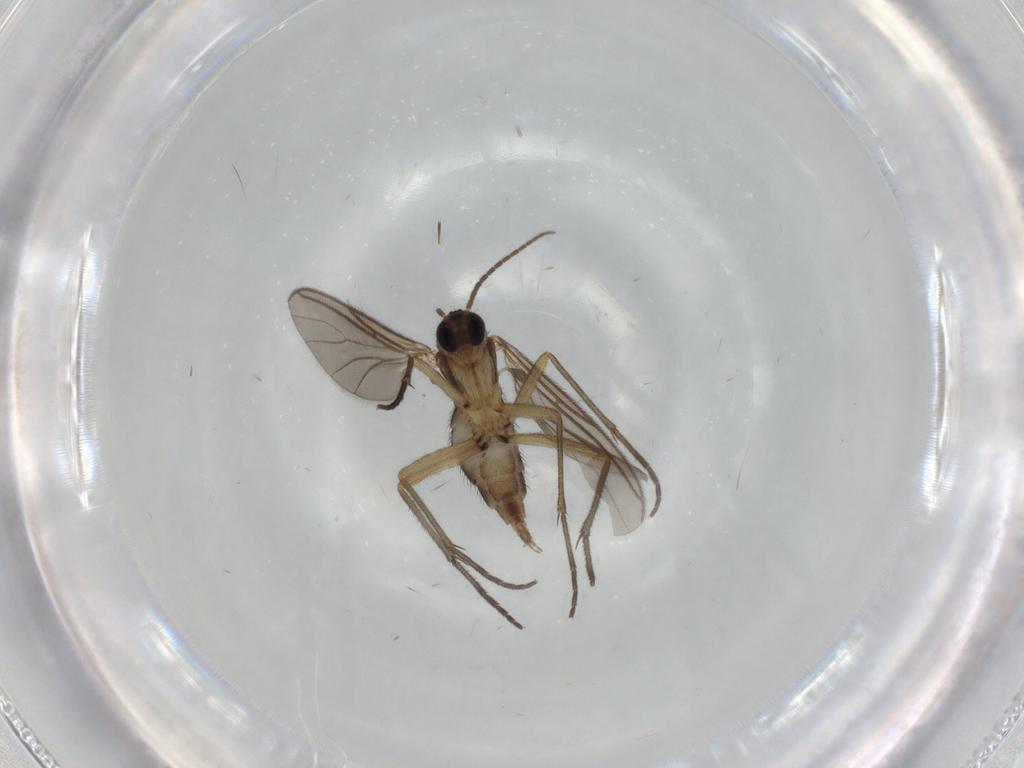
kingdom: Animalia
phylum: Arthropoda
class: Insecta
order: Diptera
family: Sciaridae
